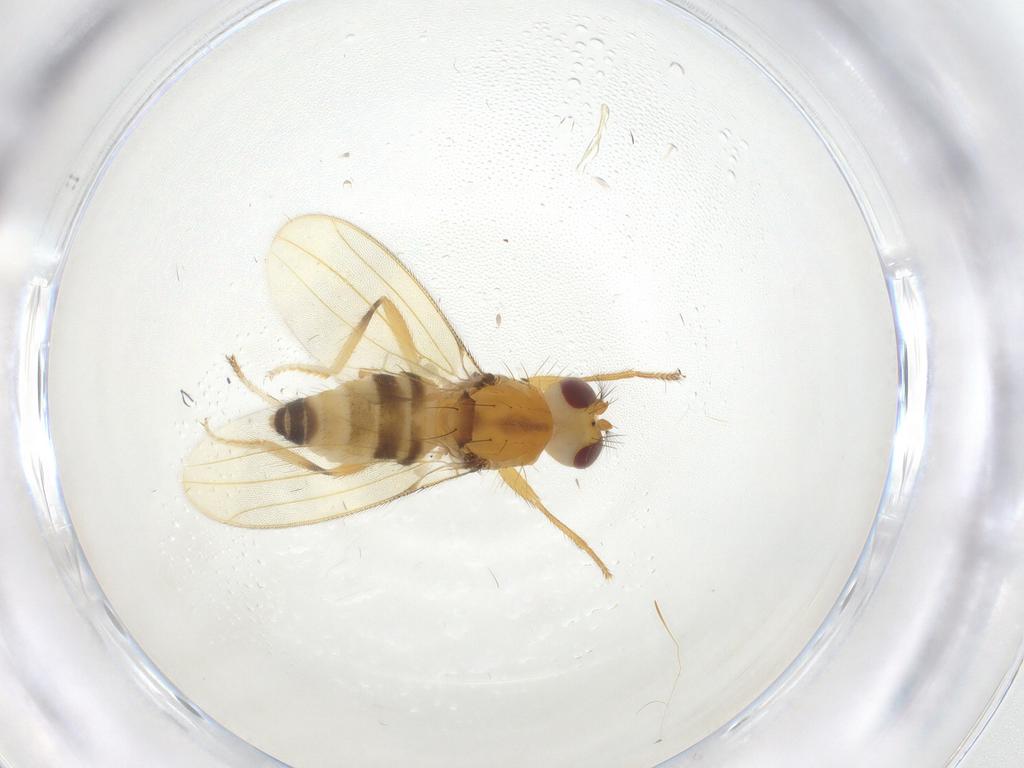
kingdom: Animalia
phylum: Arthropoda
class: Insecta
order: Diptera
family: Periscelididae
